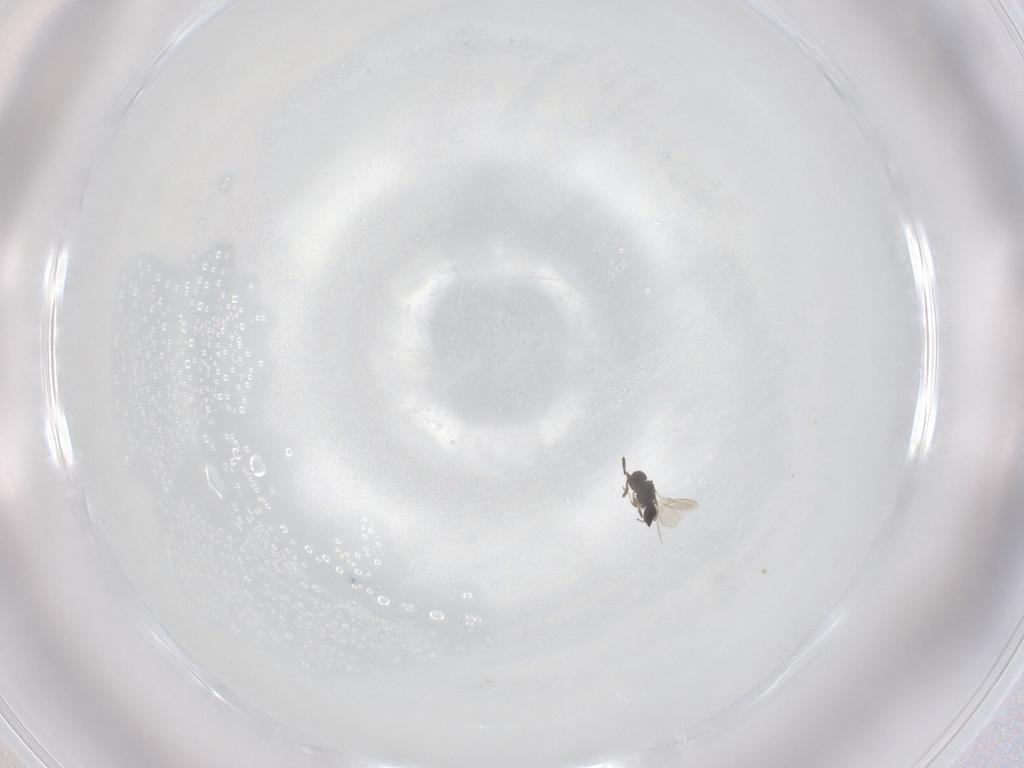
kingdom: Animalia
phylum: Arthropoda
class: Insecta
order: Hymenoptera
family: Scelionidae
